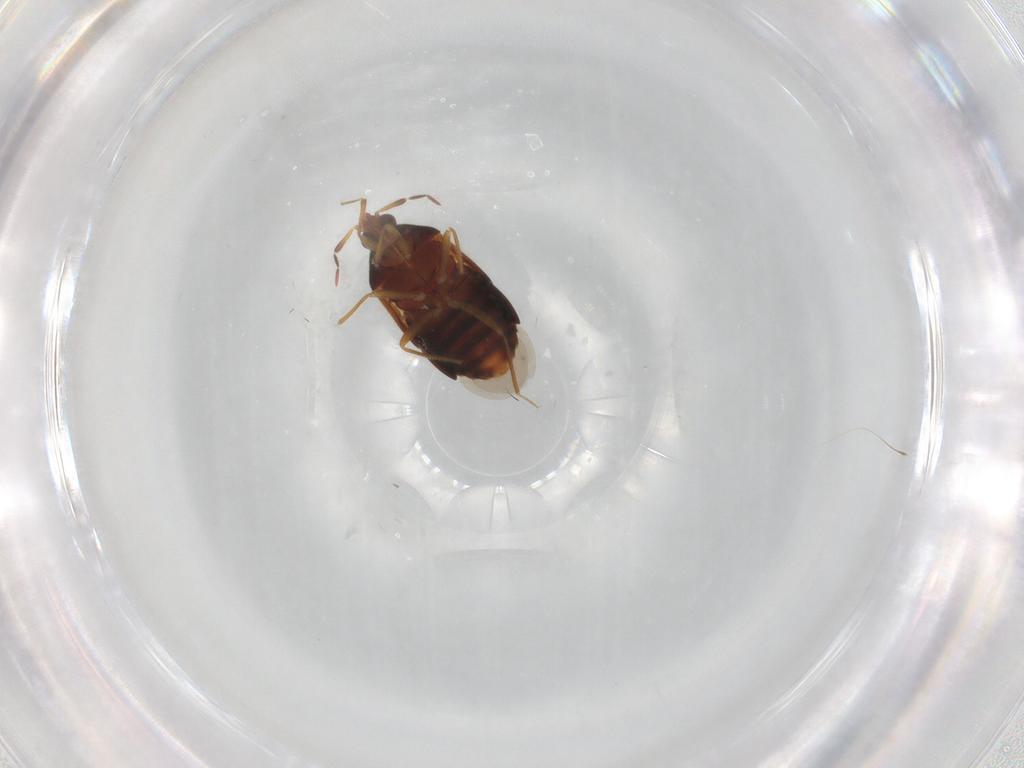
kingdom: Animalia
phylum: Arthropoda
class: Insecta
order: Hemiptera
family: Anthocoridae
